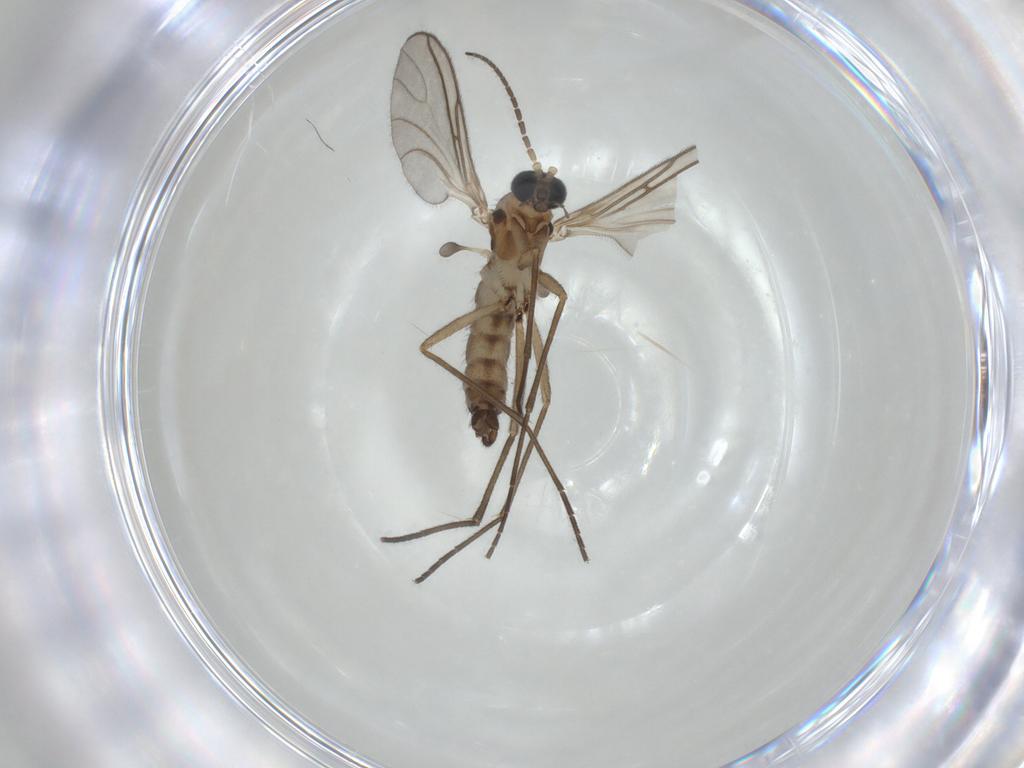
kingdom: Animalia
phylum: Arthropoda
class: Insecta
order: Diptera
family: Sciaridae
